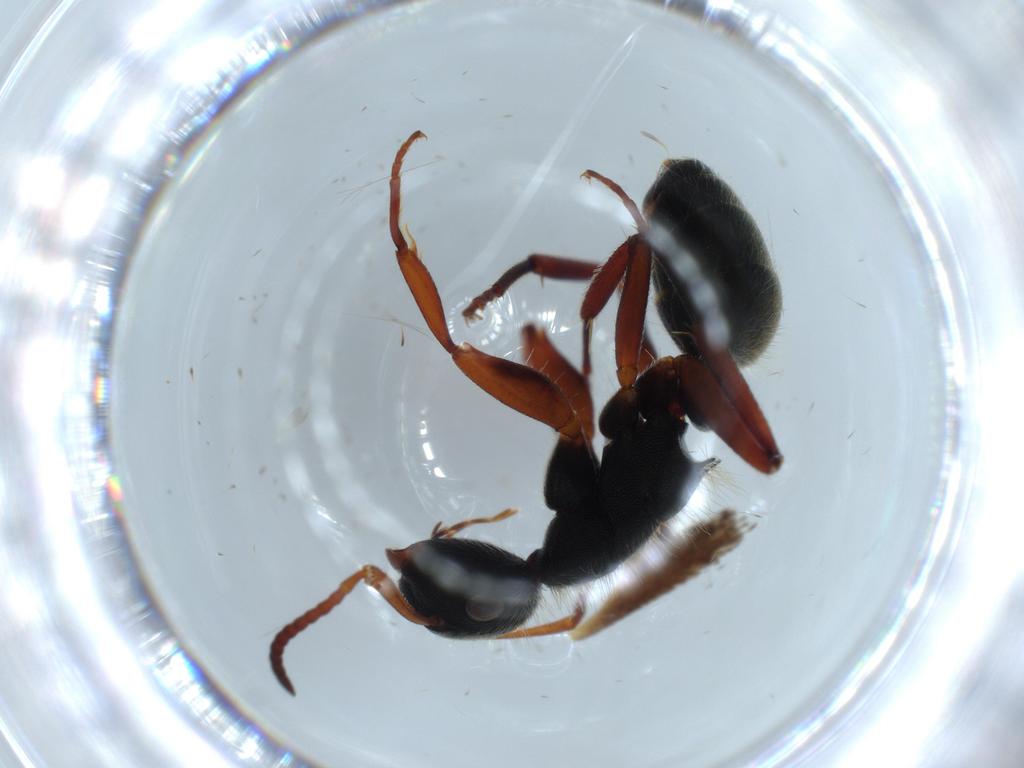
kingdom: Animalia
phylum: Arthropoda
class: Insecta
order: Hymenoptera
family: Formicidae
